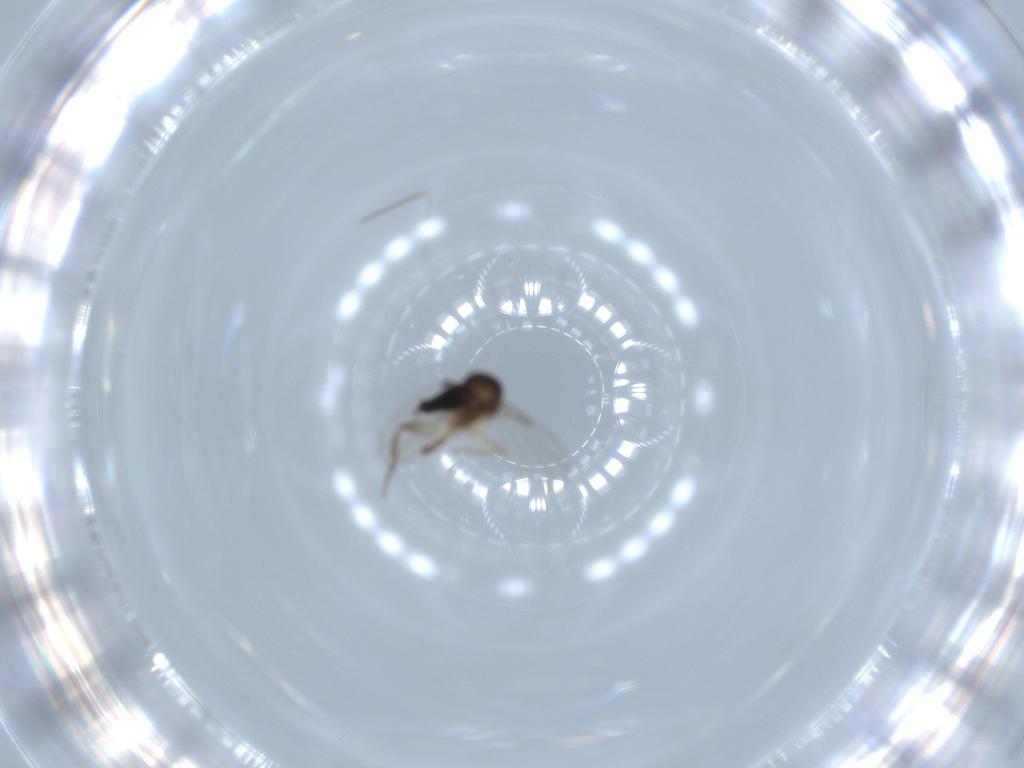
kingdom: Animalia
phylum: Arthropoda
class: Insecta
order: Diptera
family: Phoridae
